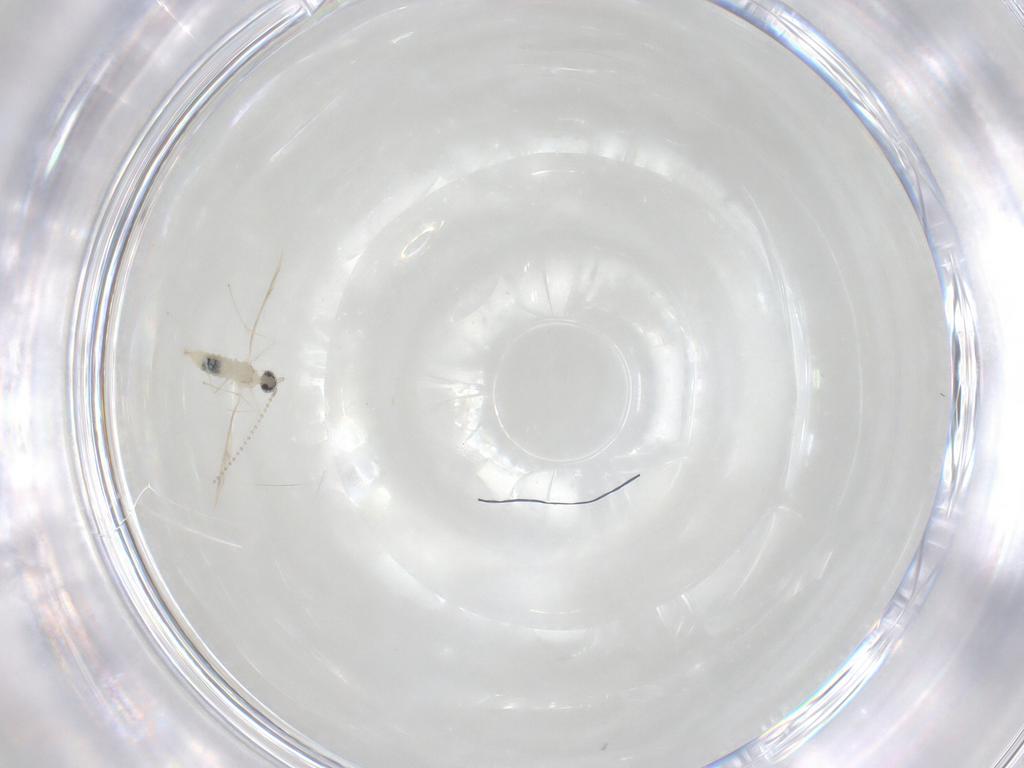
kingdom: Animalia
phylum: Arthropoda
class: Insecta
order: Diptera
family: Cecidomyiidae
